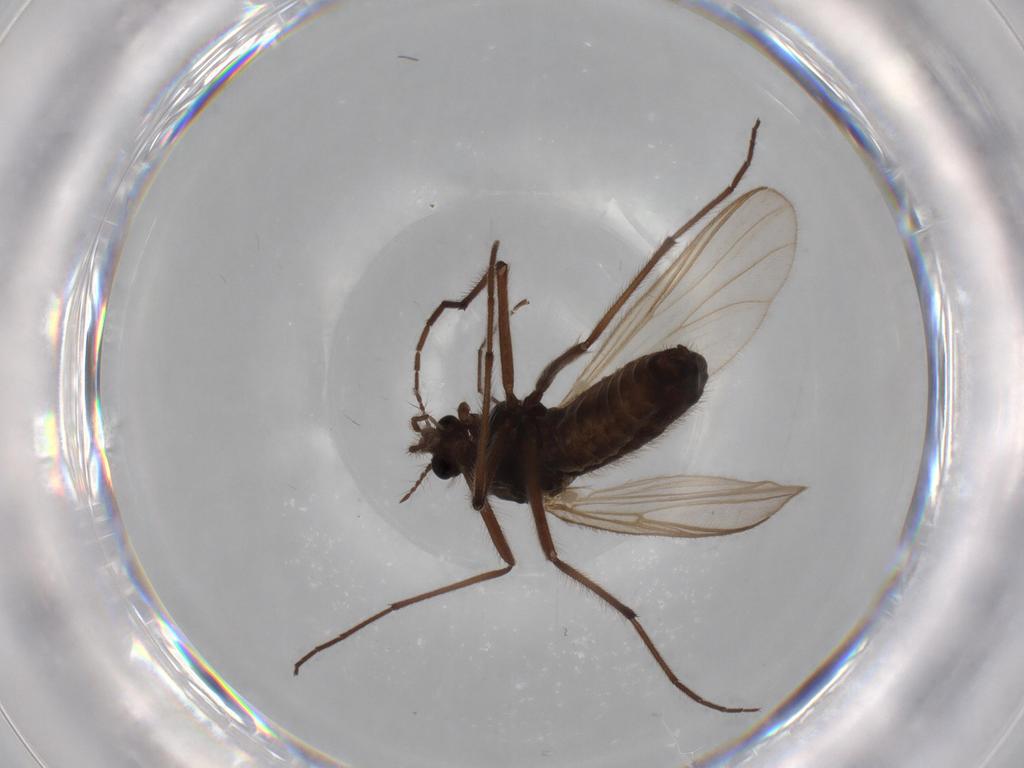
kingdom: Animalia
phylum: Arthropoda
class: Insecta
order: Diptera
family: Chironomidae
